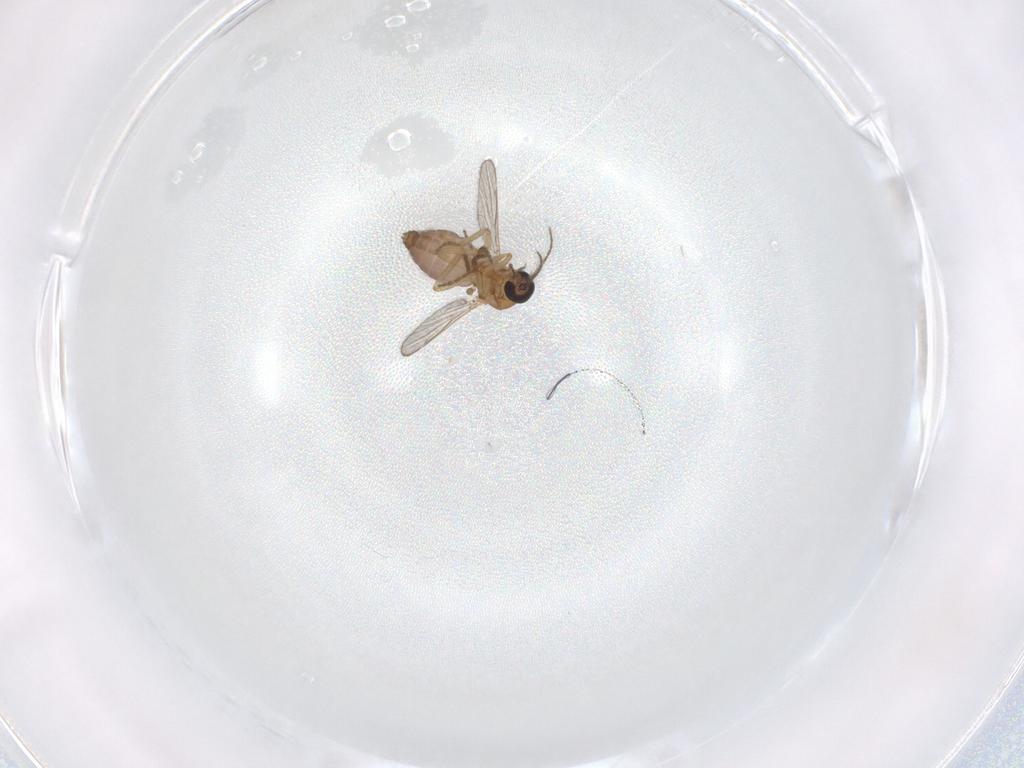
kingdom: Animalia
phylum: Arthropoda
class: Insecta
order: Diptera
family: Ceratopogonidae
